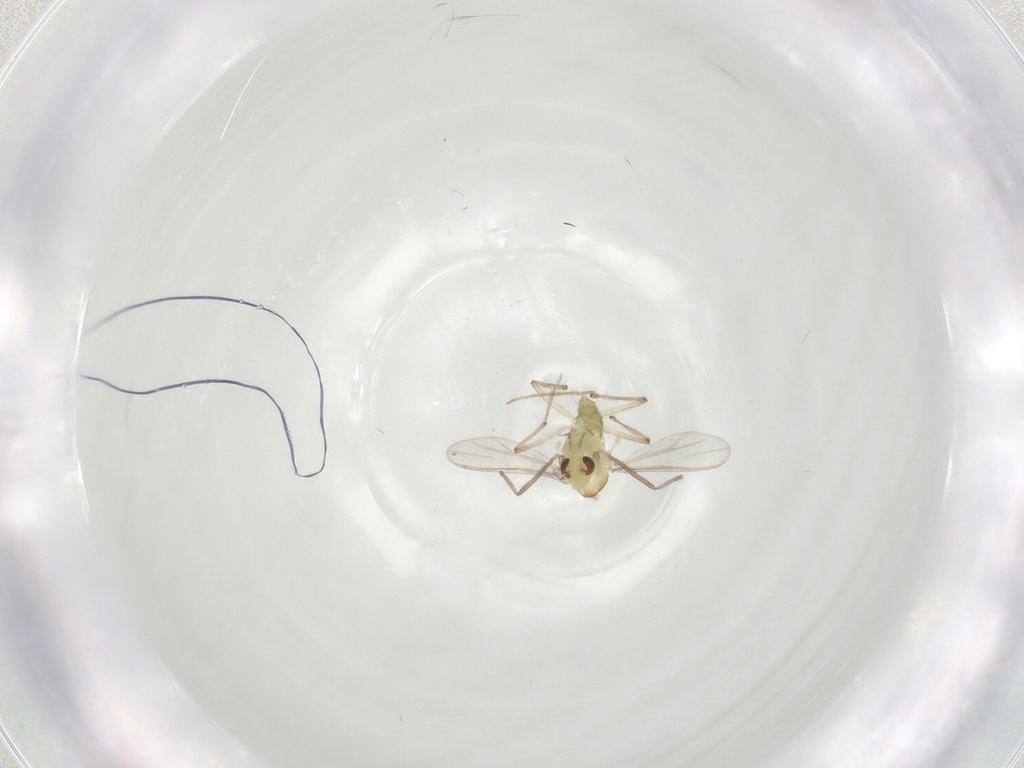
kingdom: Animalia
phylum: Arthropoda
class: Insecta
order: Diptera
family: Chironomidae
